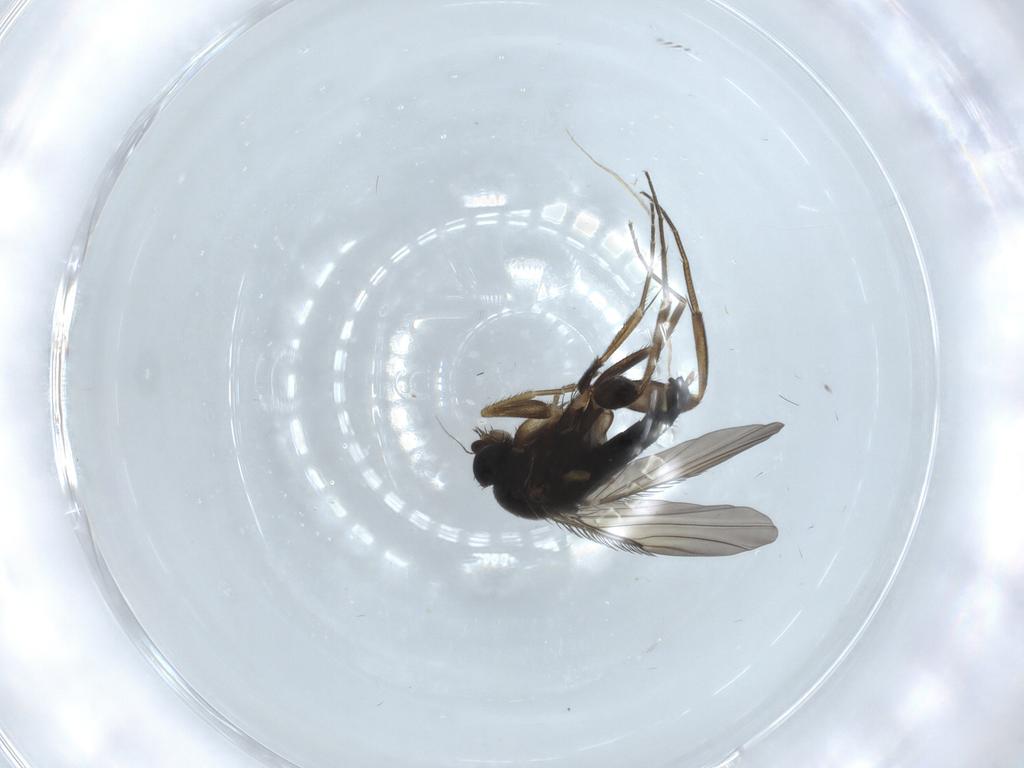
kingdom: Animalia
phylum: Arthropoda
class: Insecta
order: Diptera
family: Phoridae
